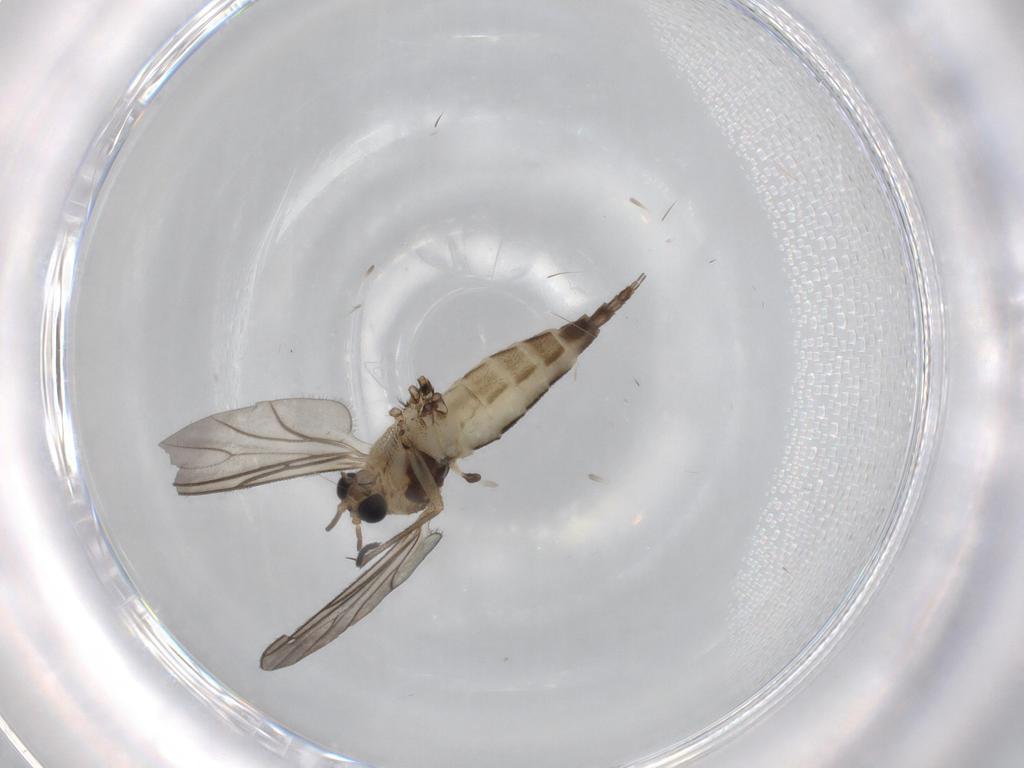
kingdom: Animalia
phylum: Arthropoda
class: Insecta
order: Diptera
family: Sciaridae
